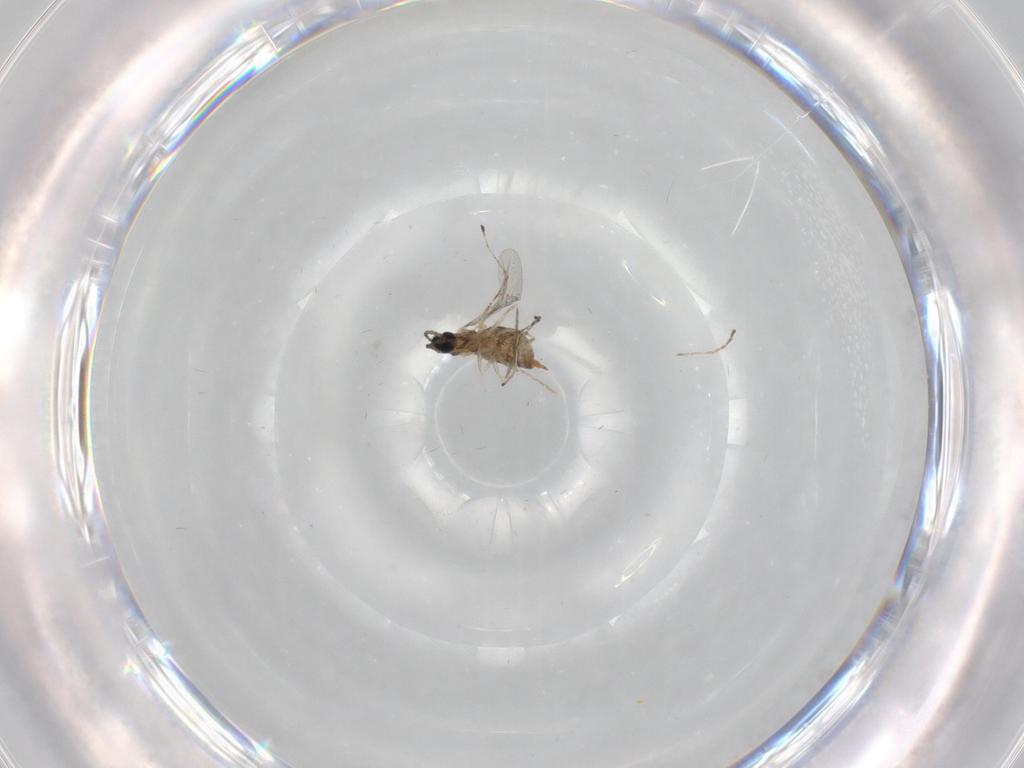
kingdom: Animalia
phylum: Arthropoda
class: Insecta
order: Diptera
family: Cecidomyiidae
